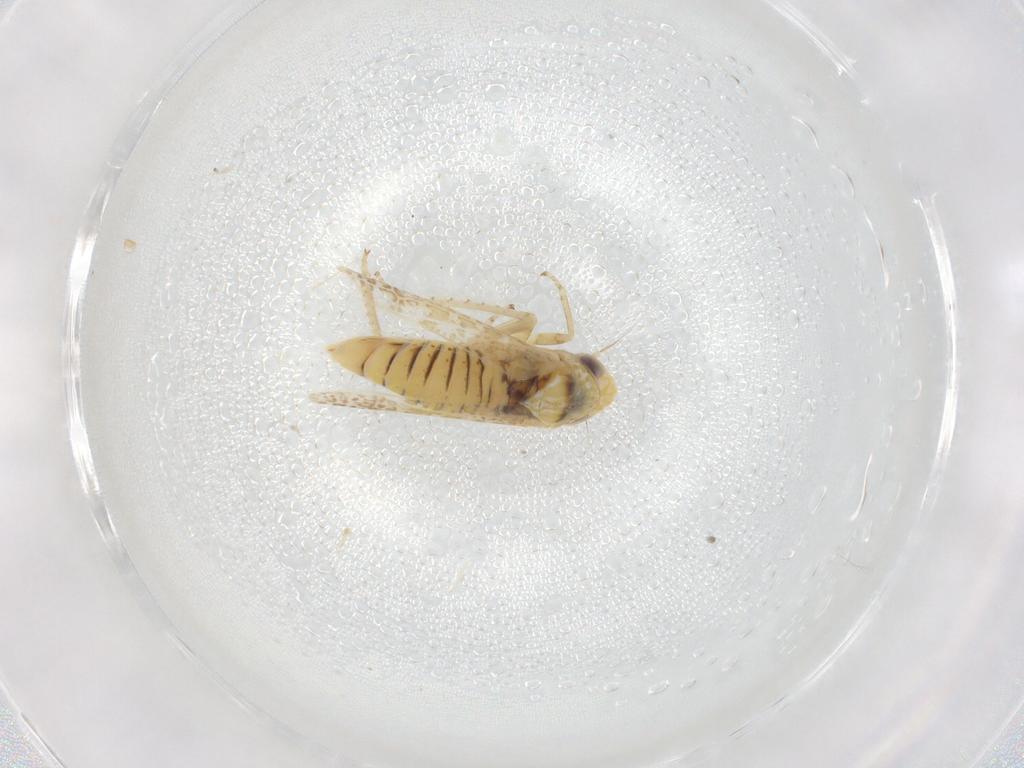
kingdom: Animalia
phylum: Arthropoda
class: Insecta
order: Hemiptera
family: Cicadellidae
